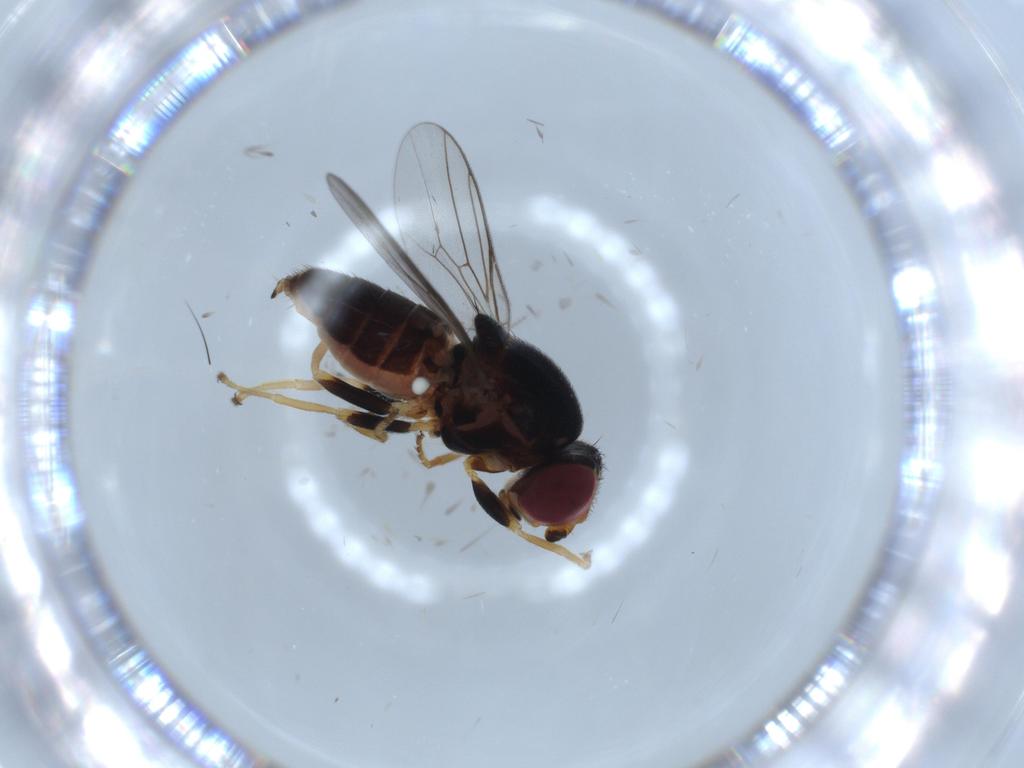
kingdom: Animalia
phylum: Arthropoda
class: Insecta
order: Diptera
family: Chloropidae
